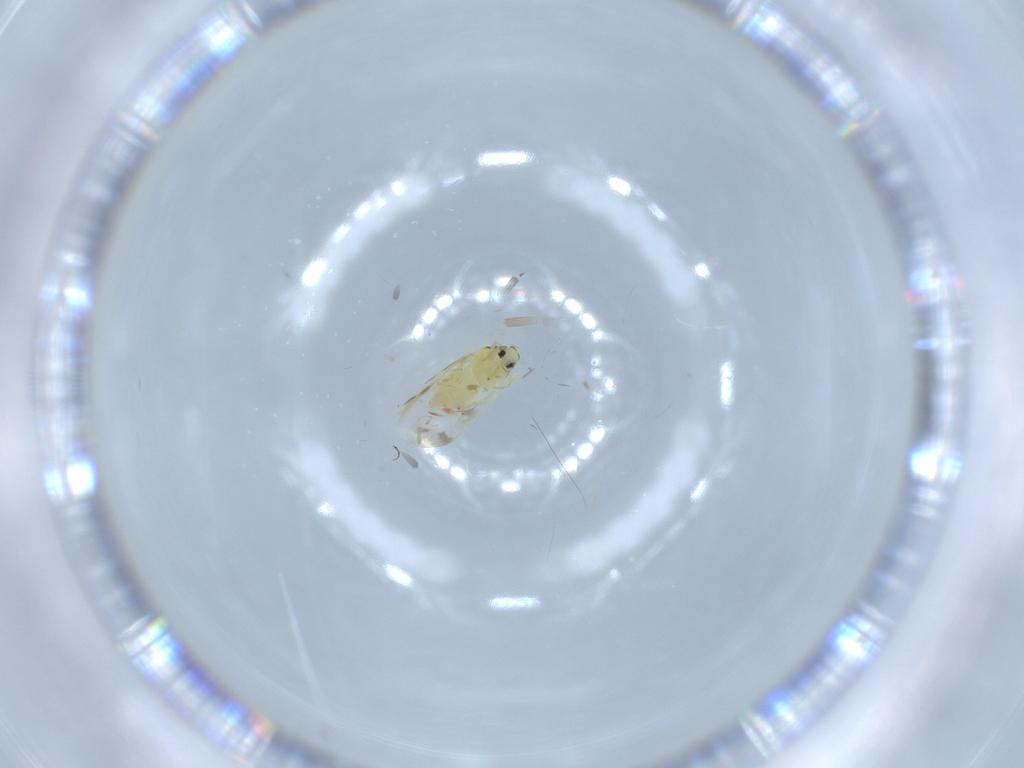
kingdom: Animalia
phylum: Arthropoda
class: Insecta
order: Hemiptera
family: Aleyrodidae
